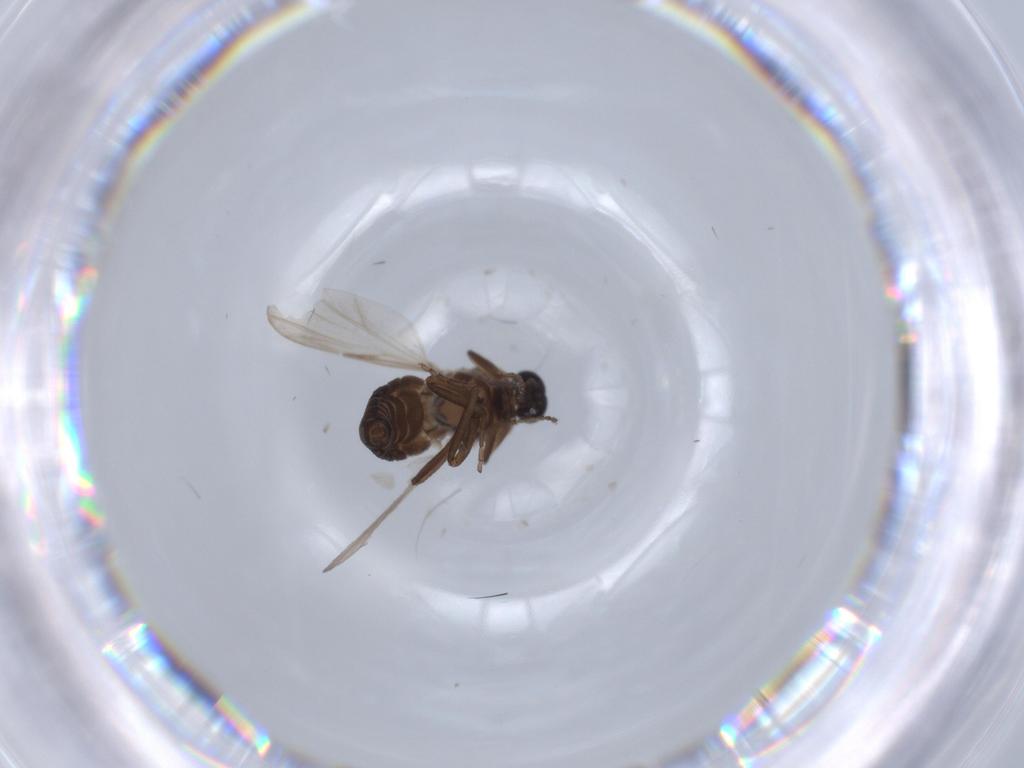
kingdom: Animalia
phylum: Arthropoda
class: Insecta
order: Diptera
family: Ceratopogonidae
